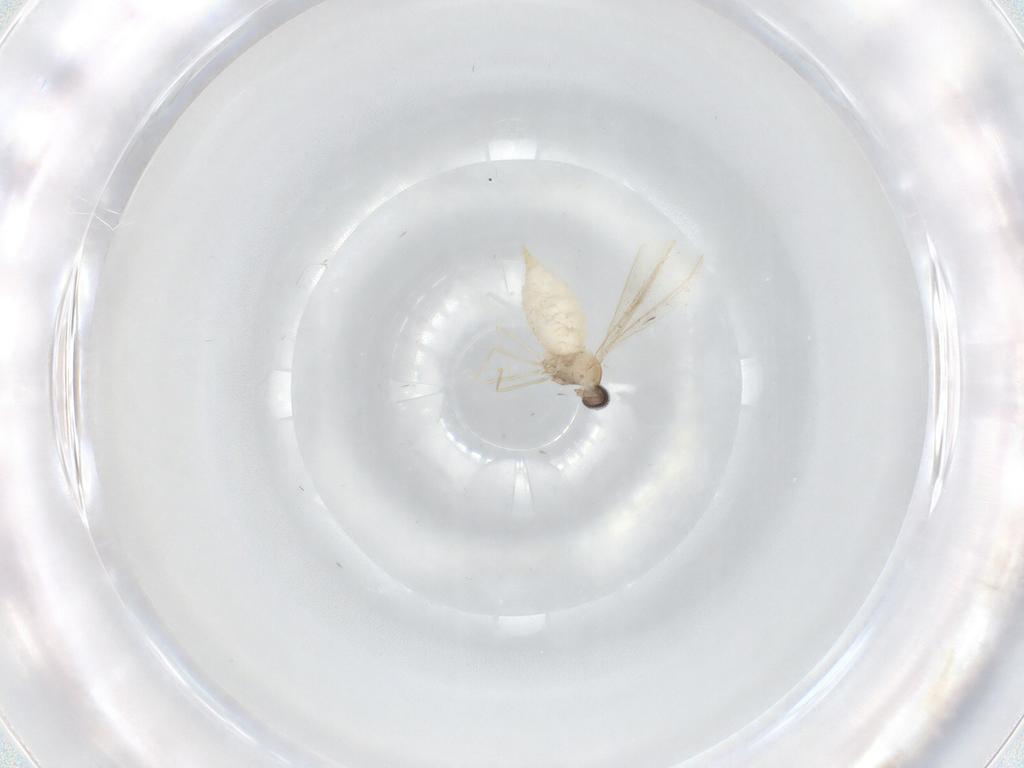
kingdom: Animalia
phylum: Arthropoda
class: Insecta
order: Diptera
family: Cecidomyiidae
